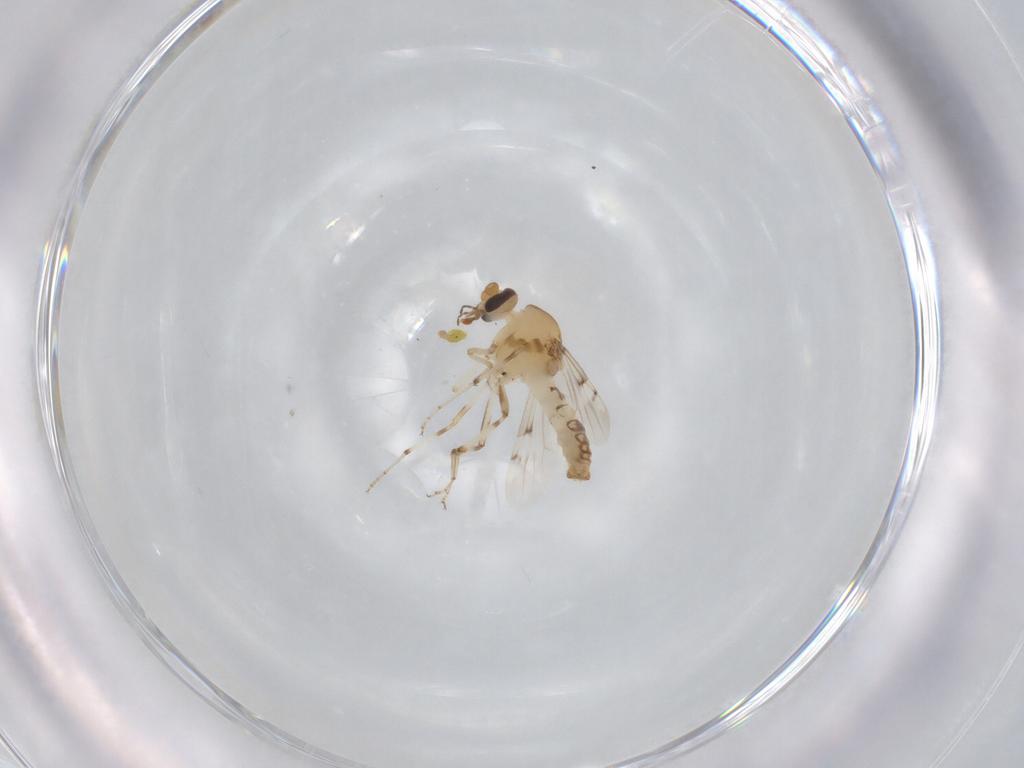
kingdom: Animalia
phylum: Arthropoda
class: Insecta
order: Diptera
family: Ceratopogonidae
